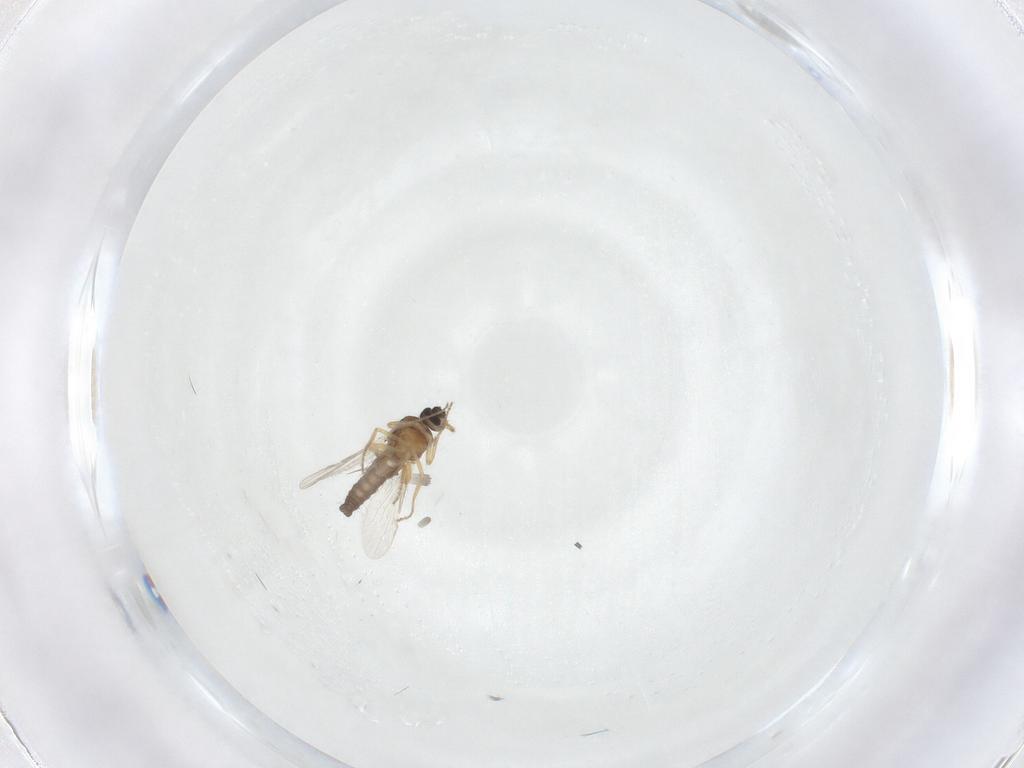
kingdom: Animalia
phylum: Arthropoda
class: Insecta
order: Diptera
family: Ceratopogonidae
